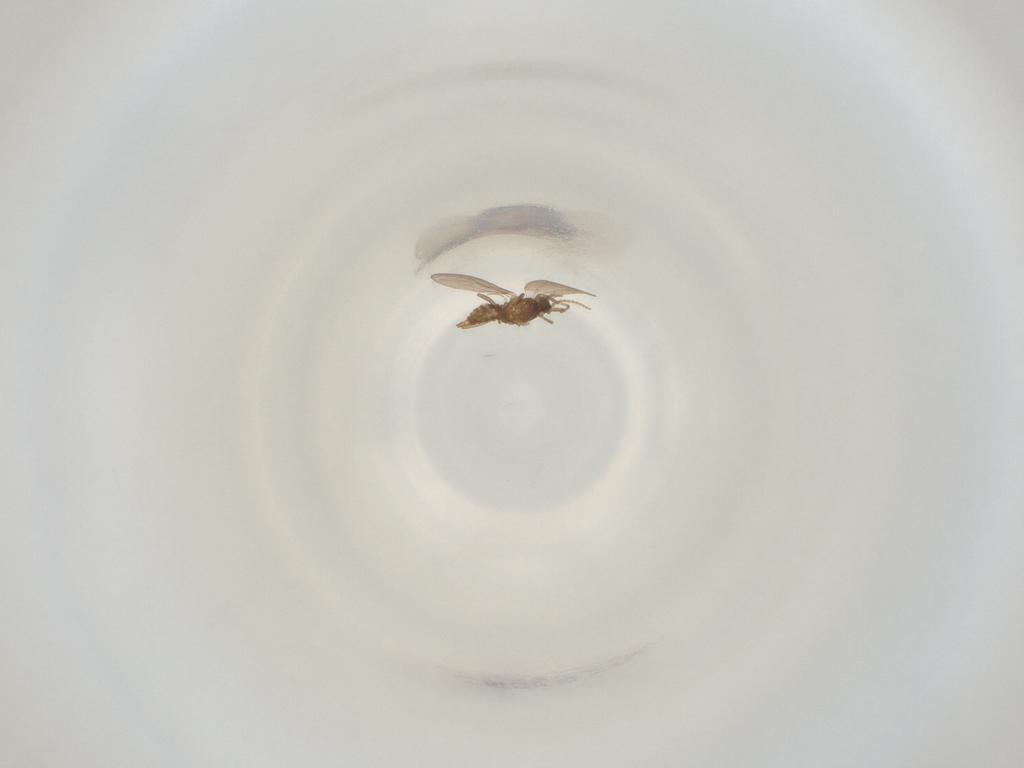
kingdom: Animalia
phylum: Arthropoda
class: Insecta
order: Diptera
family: Cecidomyiidae
